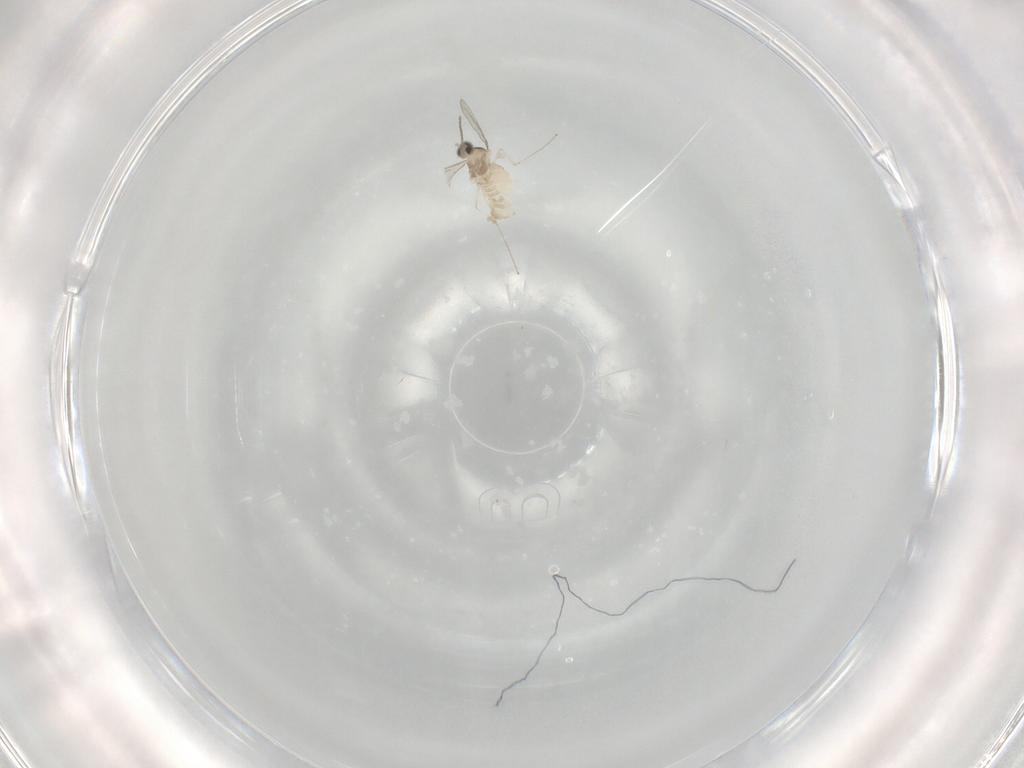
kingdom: Animalia
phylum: Arthropoda
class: Insecta
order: Diptera
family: Cecidomyiidae
